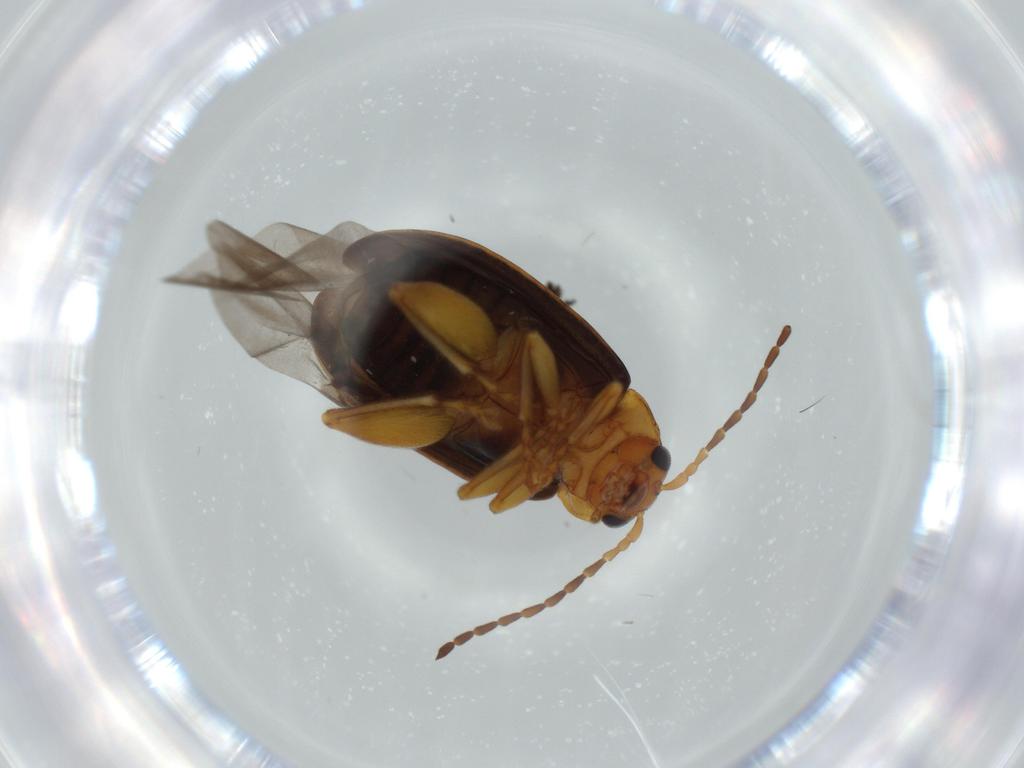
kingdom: Animalia
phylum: Arthropoda
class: Insecta
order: Coleoptera
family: Chrysomelidae
